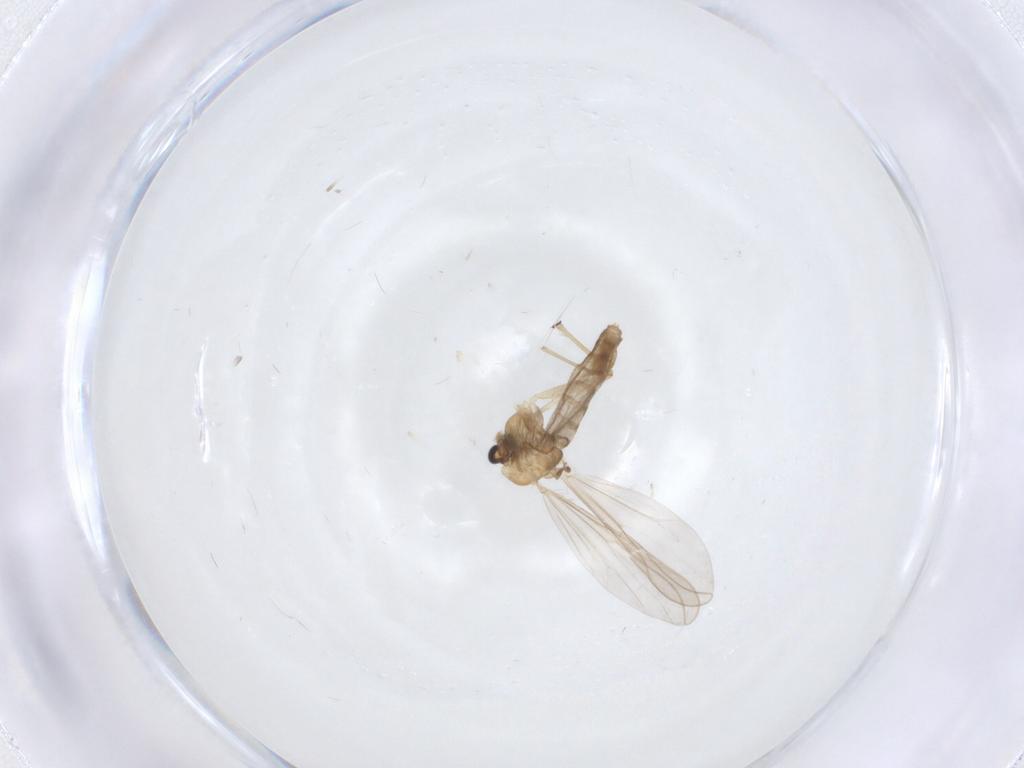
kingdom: Animalia
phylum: Arthropoda
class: Insecta
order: Diptera
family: Cecidomyiidae
